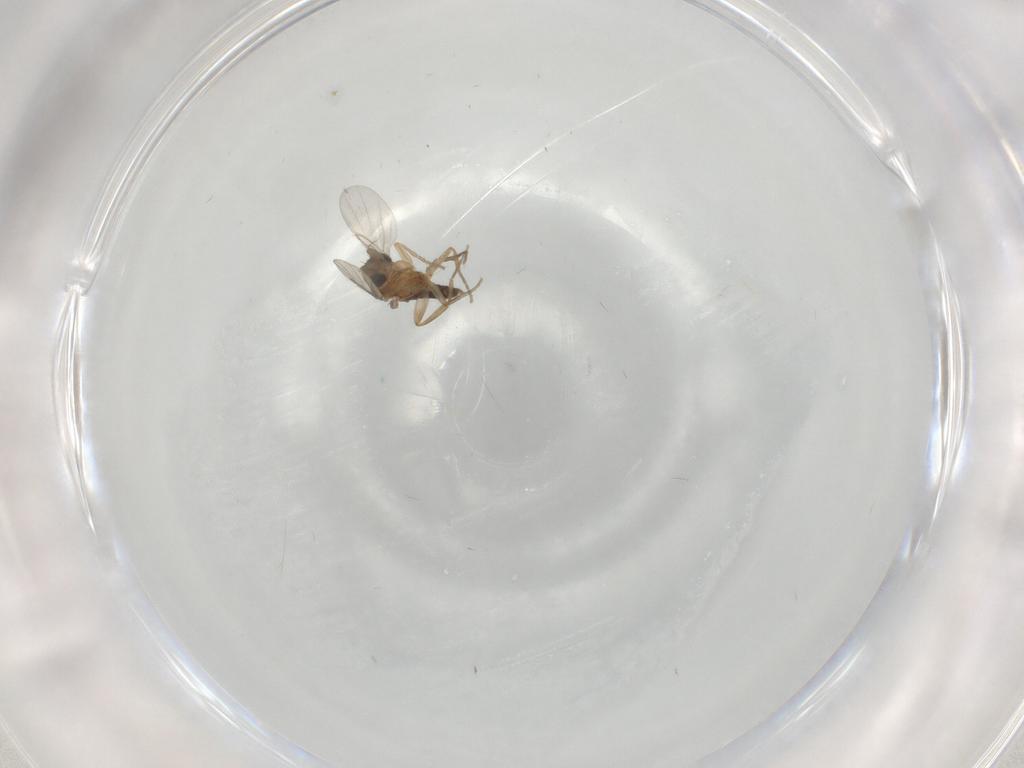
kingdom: Animalia
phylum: Arthropoda
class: Insecta
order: Diptera
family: Phoridae
